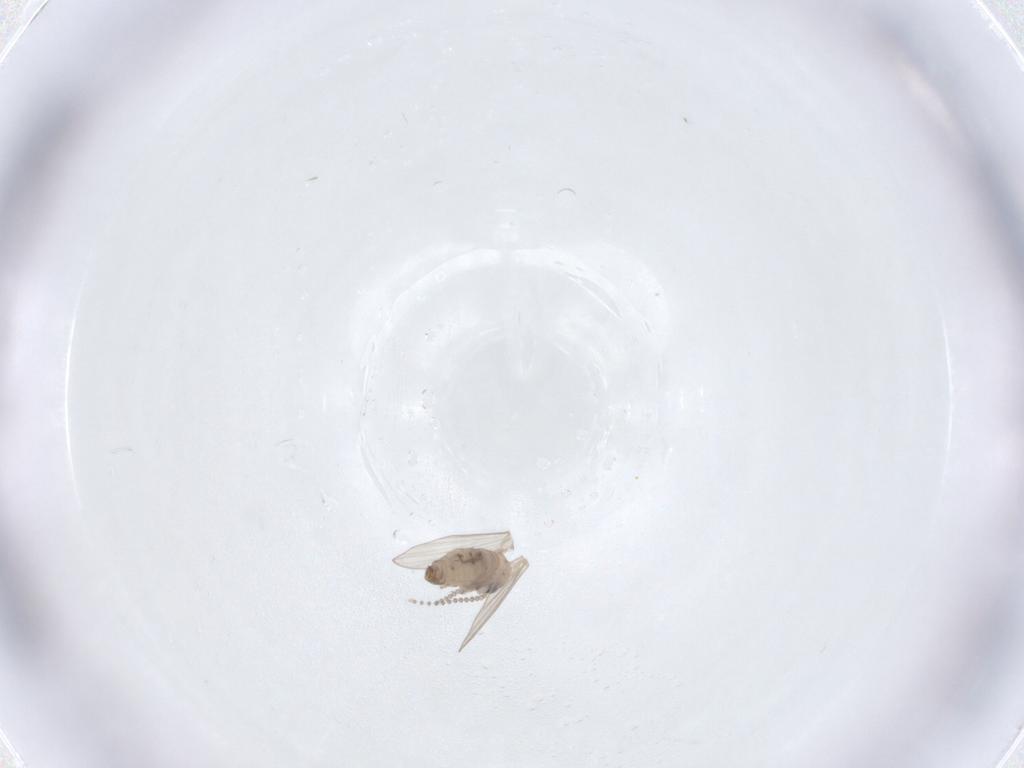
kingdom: Animalia
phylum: Arthropoda
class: Insecta
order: Diptera
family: Psychodidae
